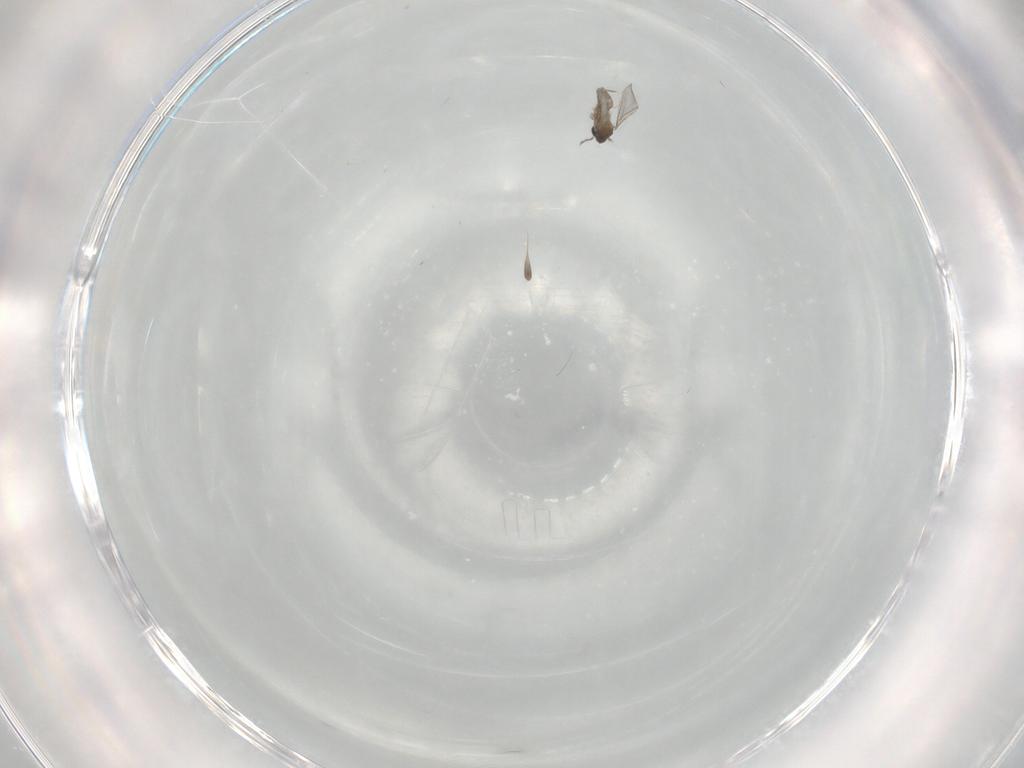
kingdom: Animalia
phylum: Arthropoda
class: Insecta
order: Diptera
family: Cecidomyiidae
